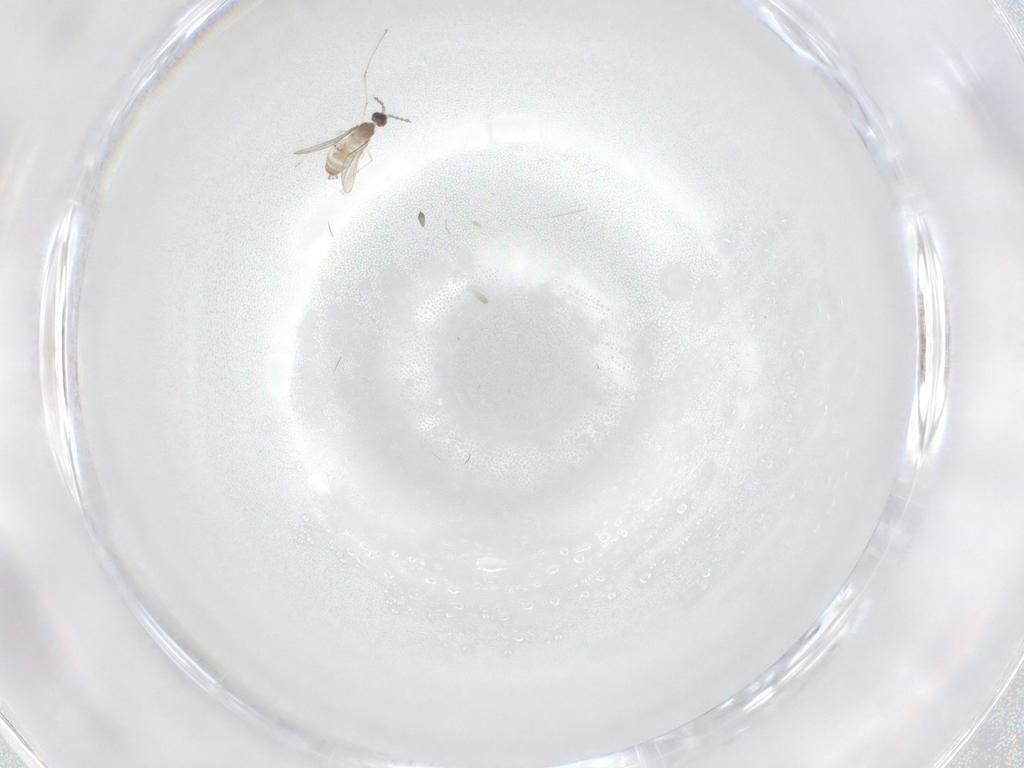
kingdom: Animalia
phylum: Arthropoda
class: Insecta
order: Diptera
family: Cecidomyiidae
